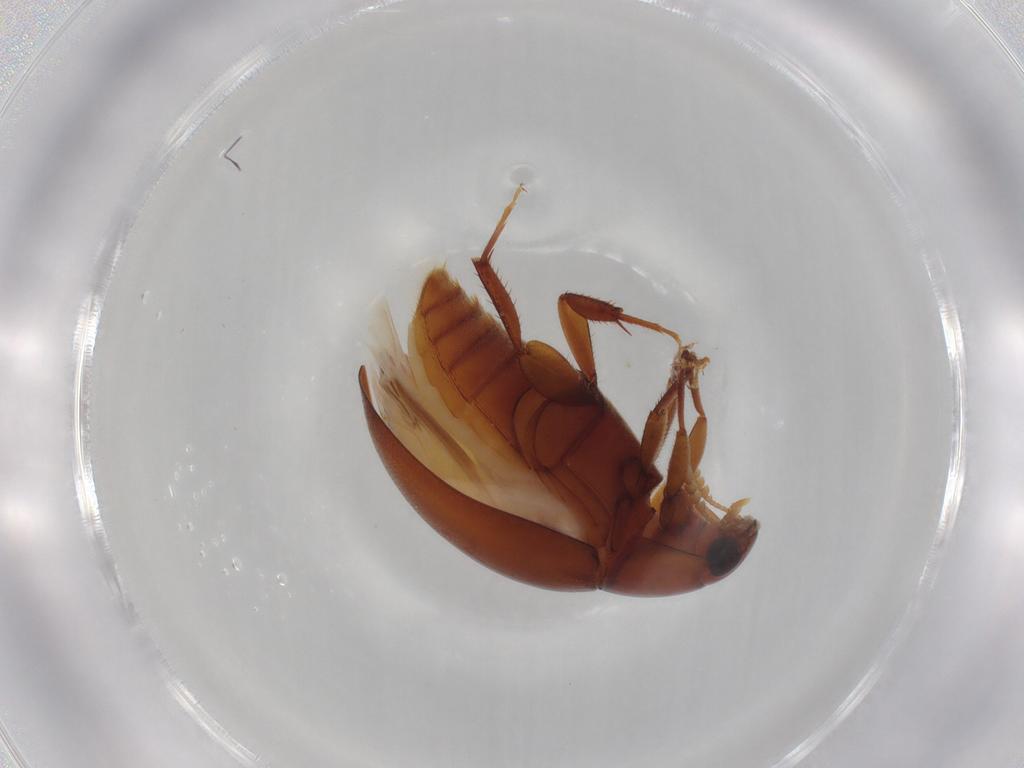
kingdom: Animalia
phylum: Arthropoda
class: Insecta
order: Coleoptera
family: Phalacridae
